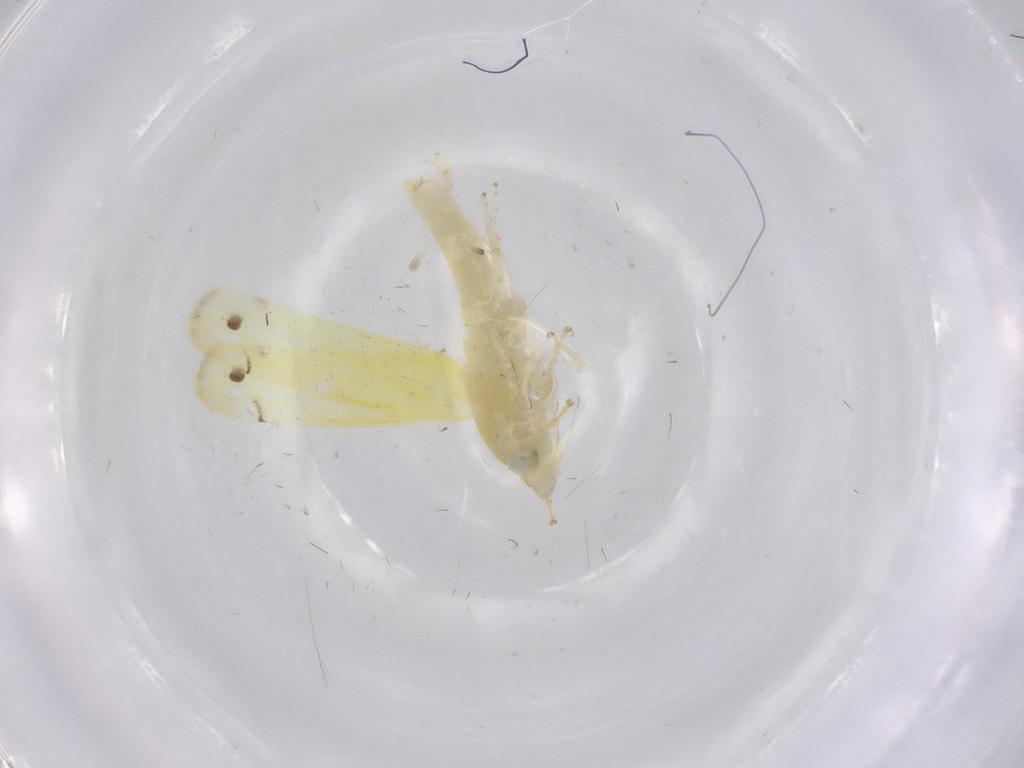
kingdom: Animalia
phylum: Arthropoda
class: Insecta
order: Hemiptera
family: Cicadellidae
